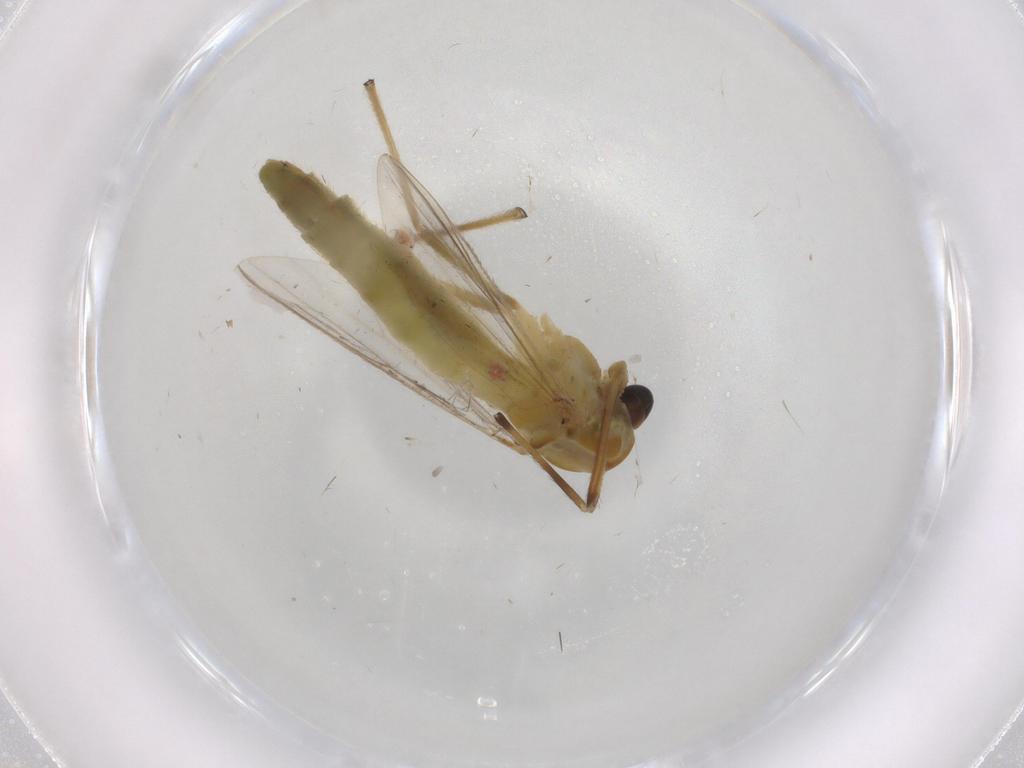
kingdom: Animalia
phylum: Arthropoda
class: Insecta
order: Diptera
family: Chironomidae
